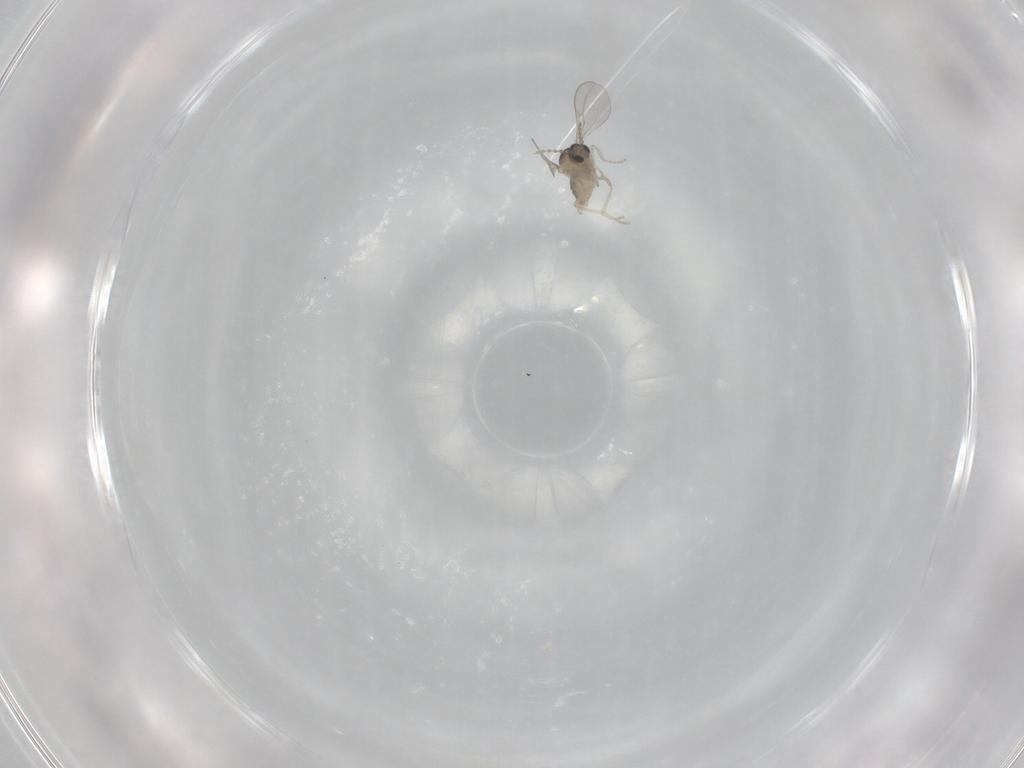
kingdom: Animalia
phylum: Arthropoda
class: Insecta
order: Diptera
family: Cecidomyiidae
